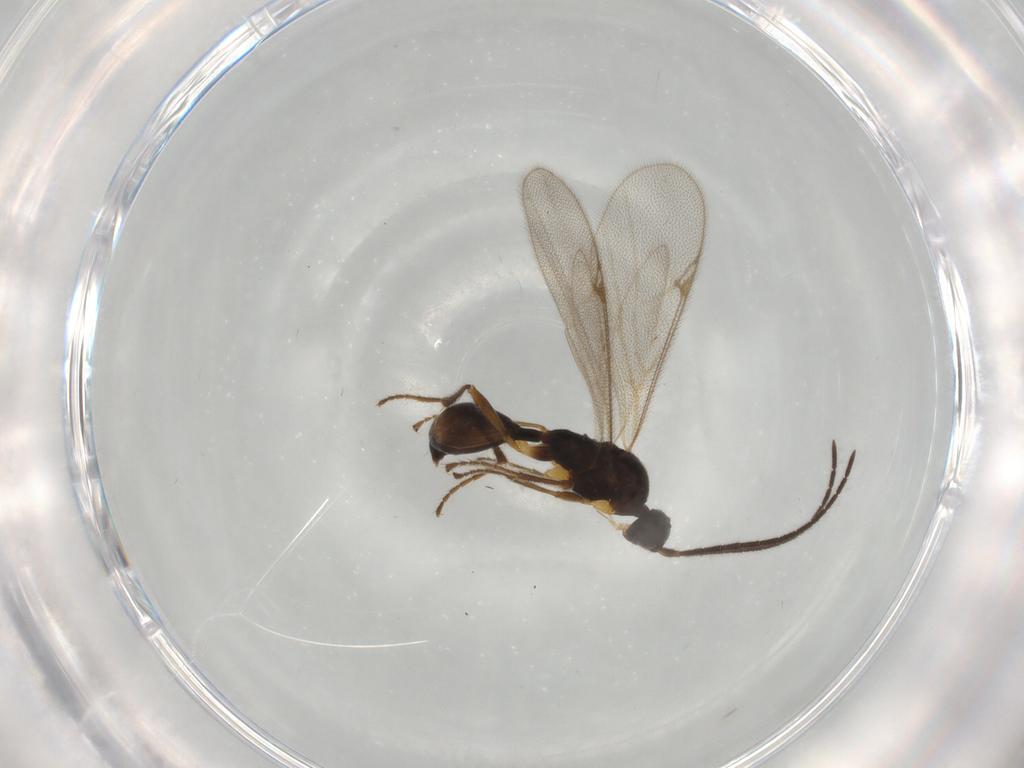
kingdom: Animalia
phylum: Arthropoda
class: Insecta
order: Hymenoptera
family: Proctotrupidae
